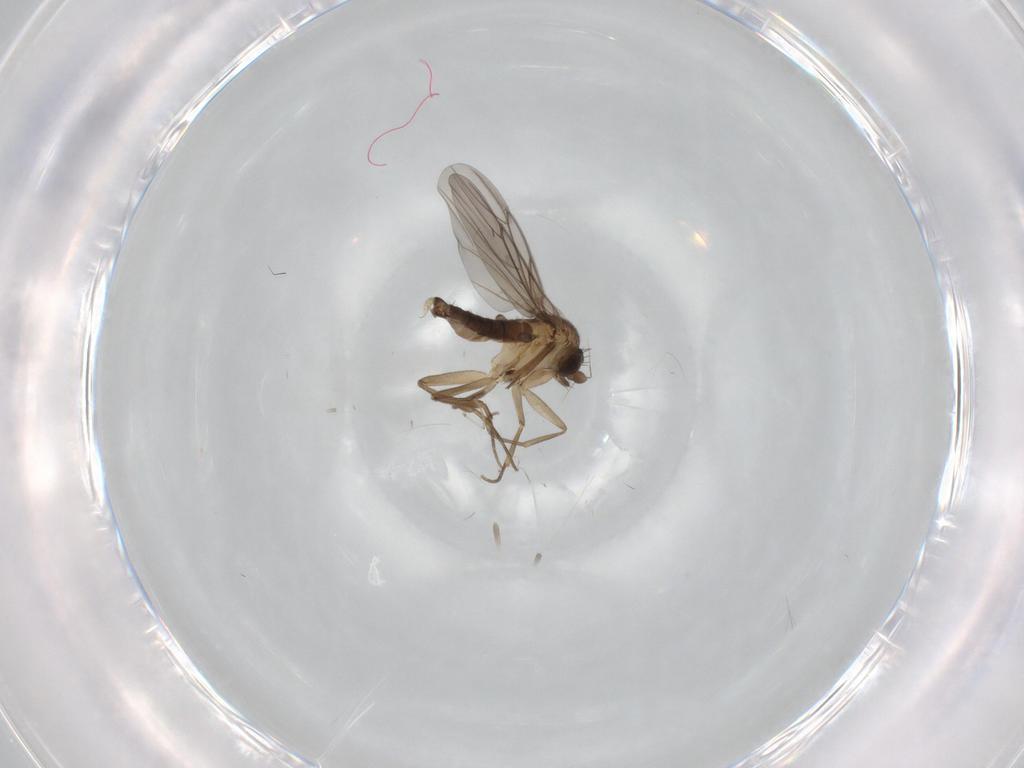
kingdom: Animalia
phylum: Arthropoda
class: Insecta
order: Diptera
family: Phoridae
